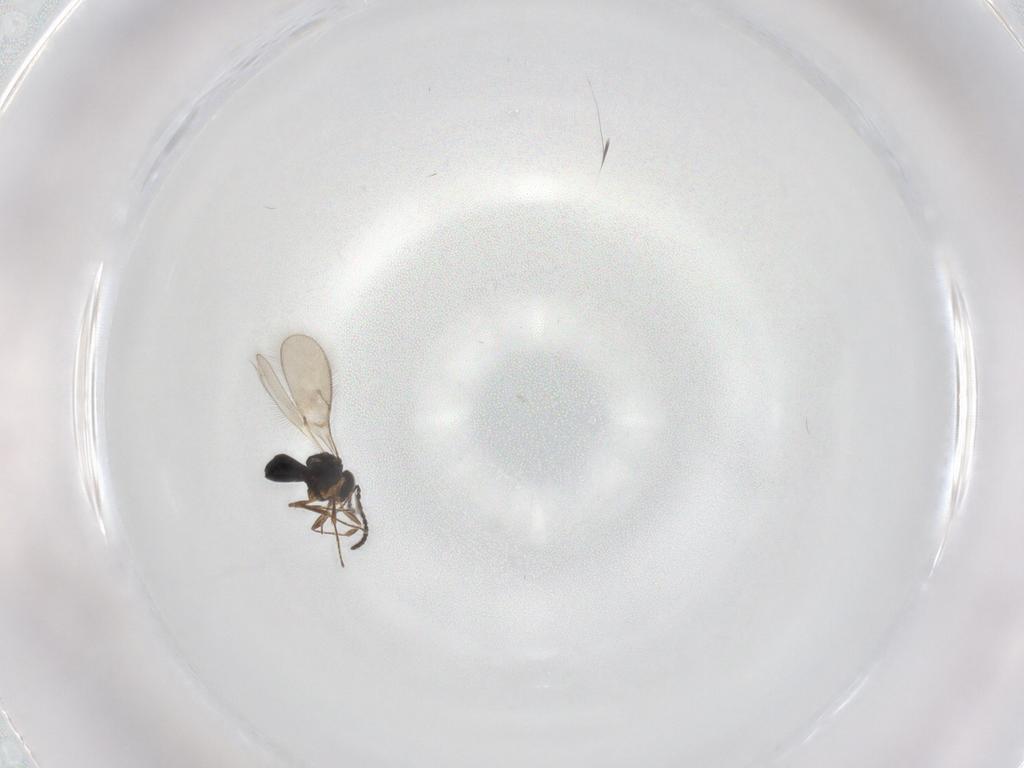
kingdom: Animalia
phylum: Arthropoda
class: Insecta
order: Hymenoptera
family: Scelionidae
